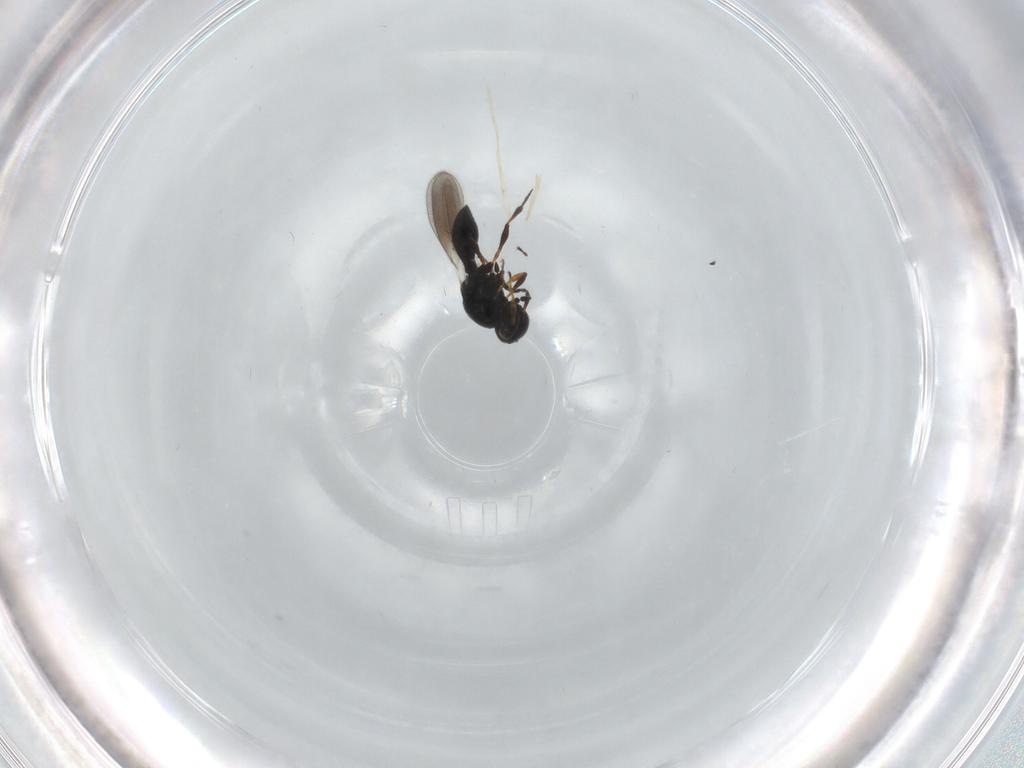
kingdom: Animalia
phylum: Arthropoda
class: Insecta
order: Hymenoptera
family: Platygastridae
